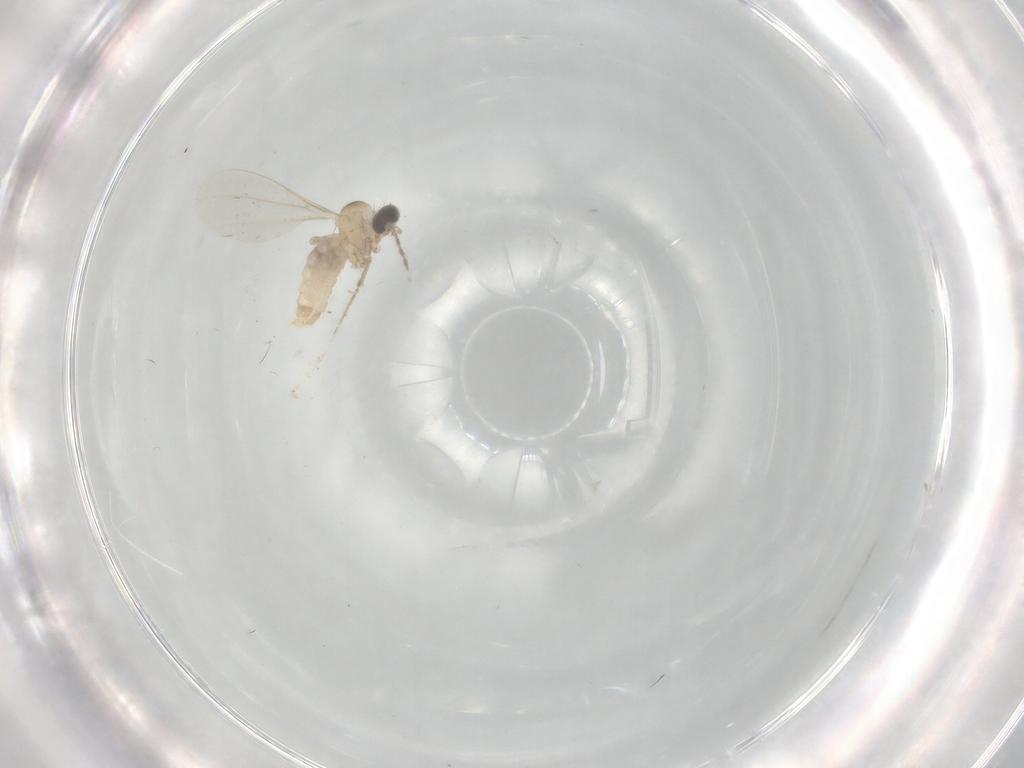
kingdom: Animalia
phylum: Arthropoda
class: Insecta
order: Diptera
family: Cecidomyiidae
